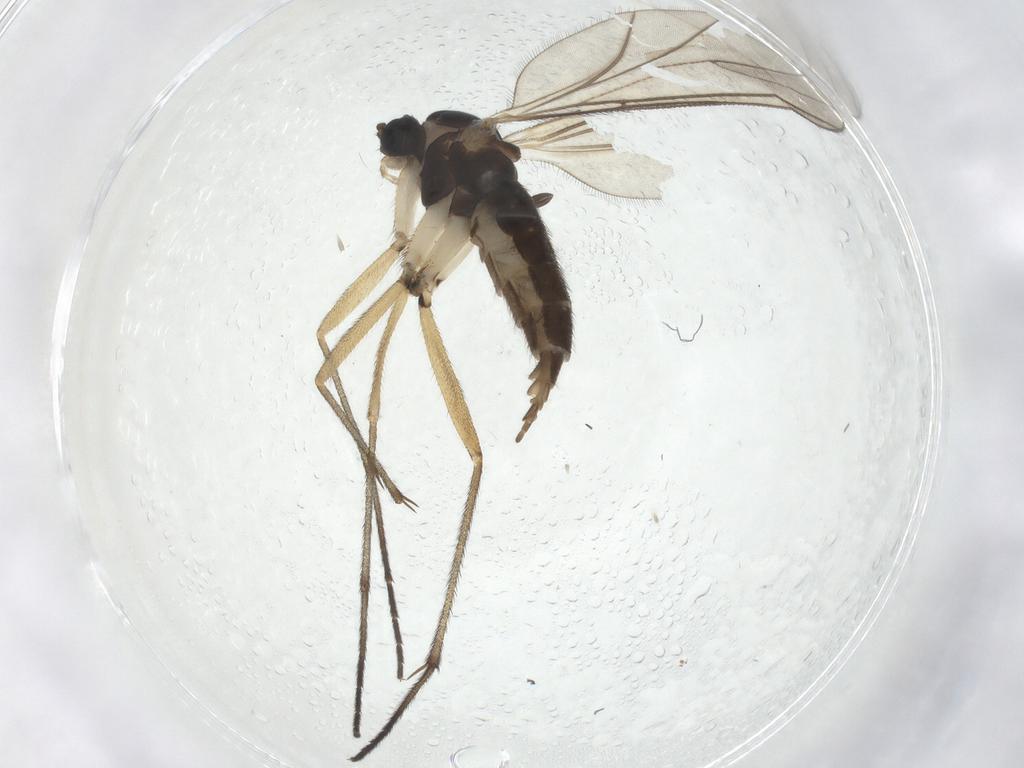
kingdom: Animalia
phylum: Arthropoda
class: Insecta
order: Diptera
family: Sciaridae
